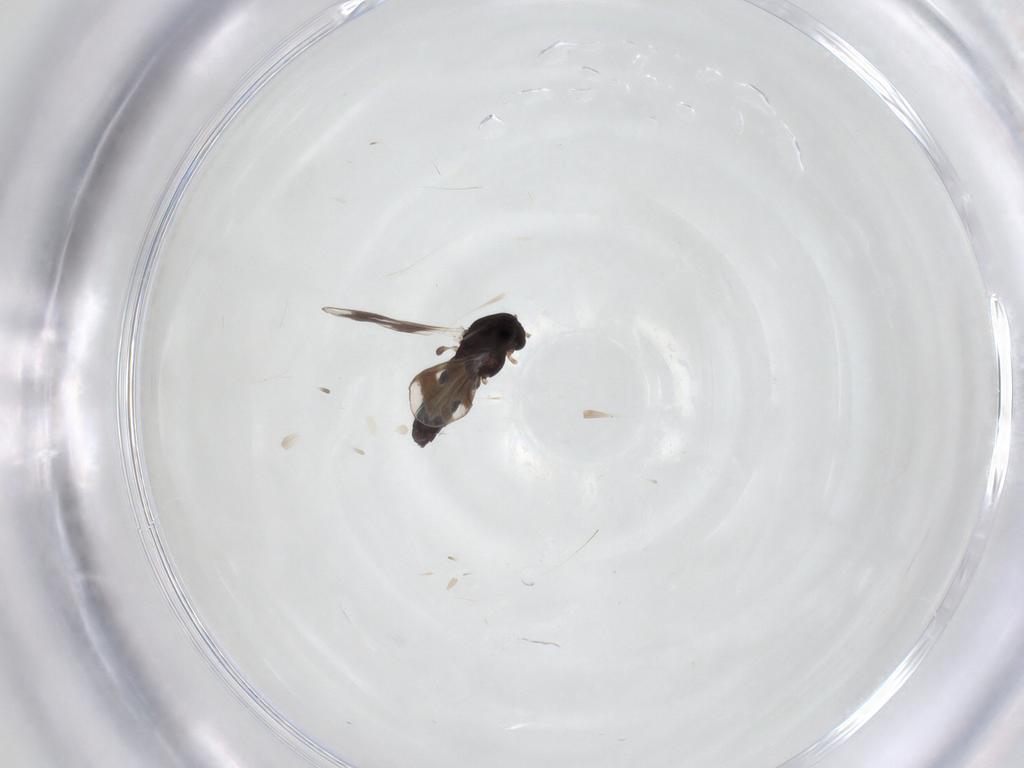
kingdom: Animalia
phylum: Arthropoda
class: Insecta
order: Diptera
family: Chironomidae
